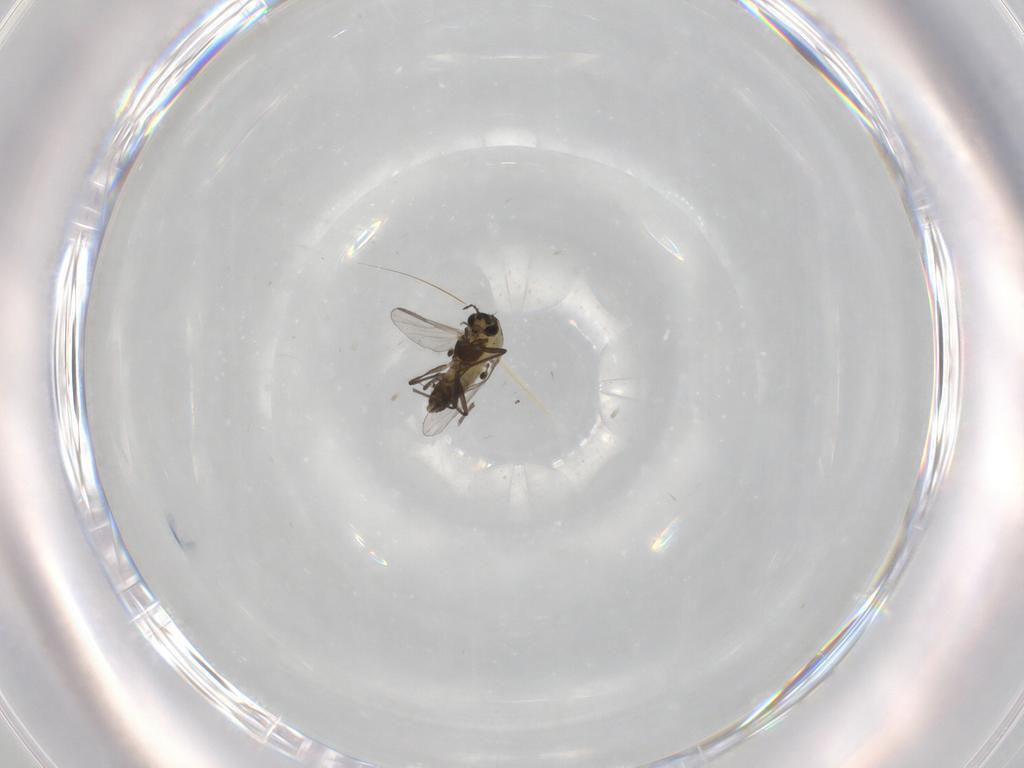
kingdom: Animalia
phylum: Arthropoda
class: Insecta
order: Diptera
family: Chironomidae
